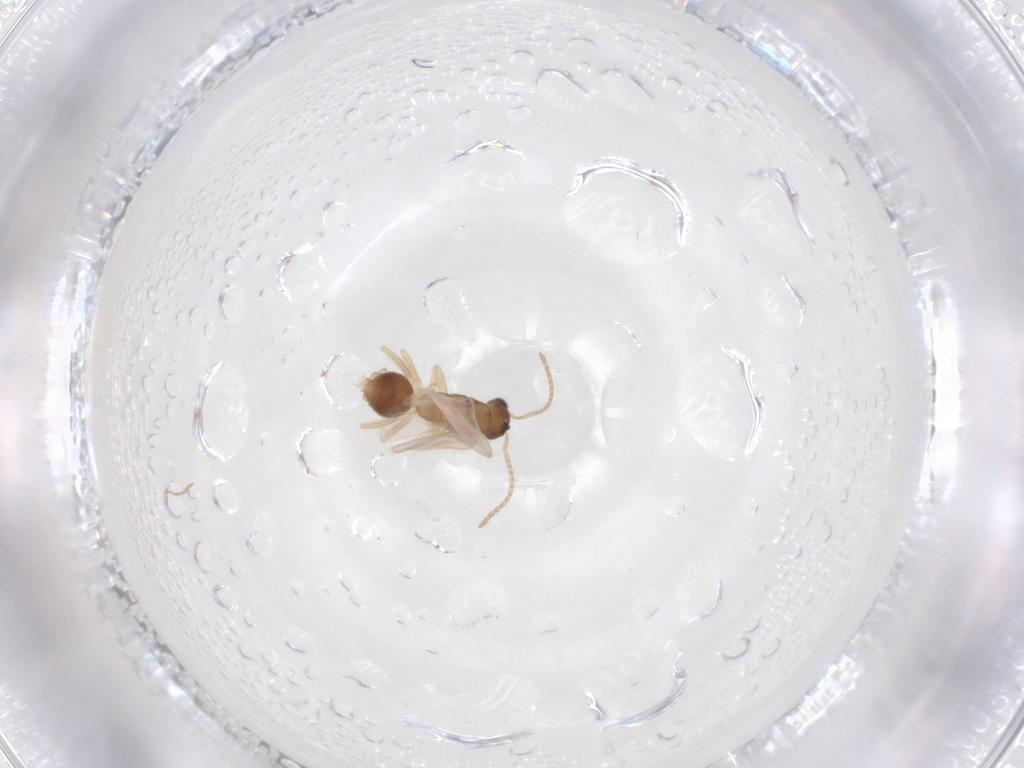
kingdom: Animalia
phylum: Arthropoda
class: Insecta
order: Hymenoptera
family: Formicidae
